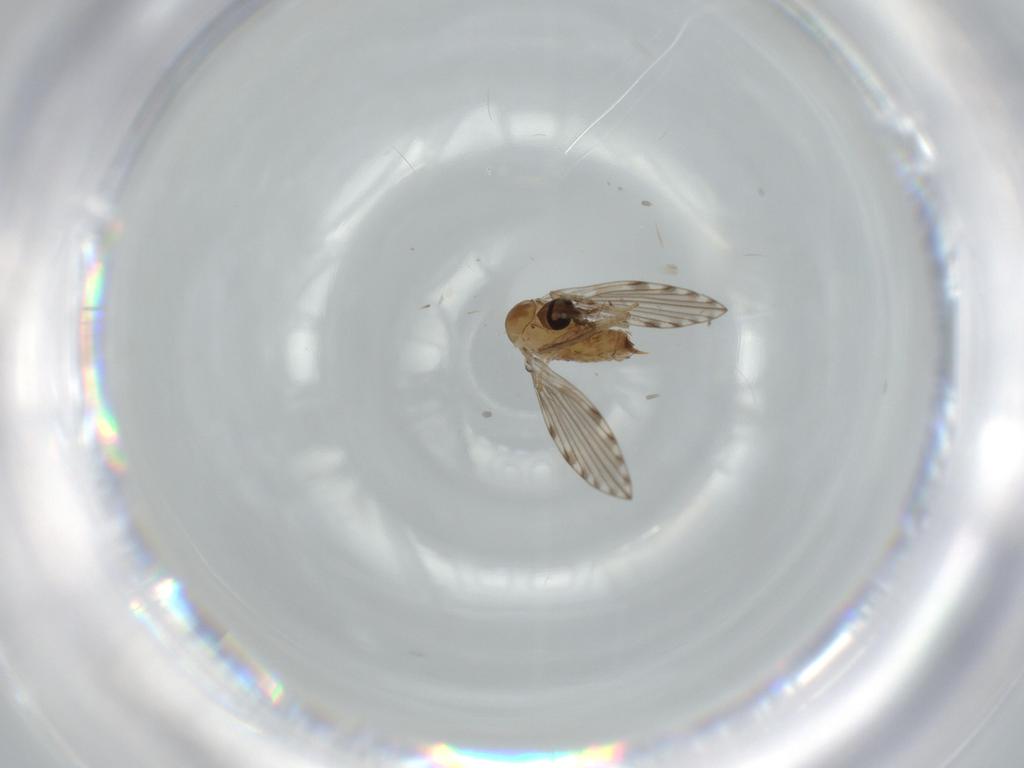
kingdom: Animalia
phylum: Arthropoda
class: Insecta
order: Diptera
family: Psychodidae
